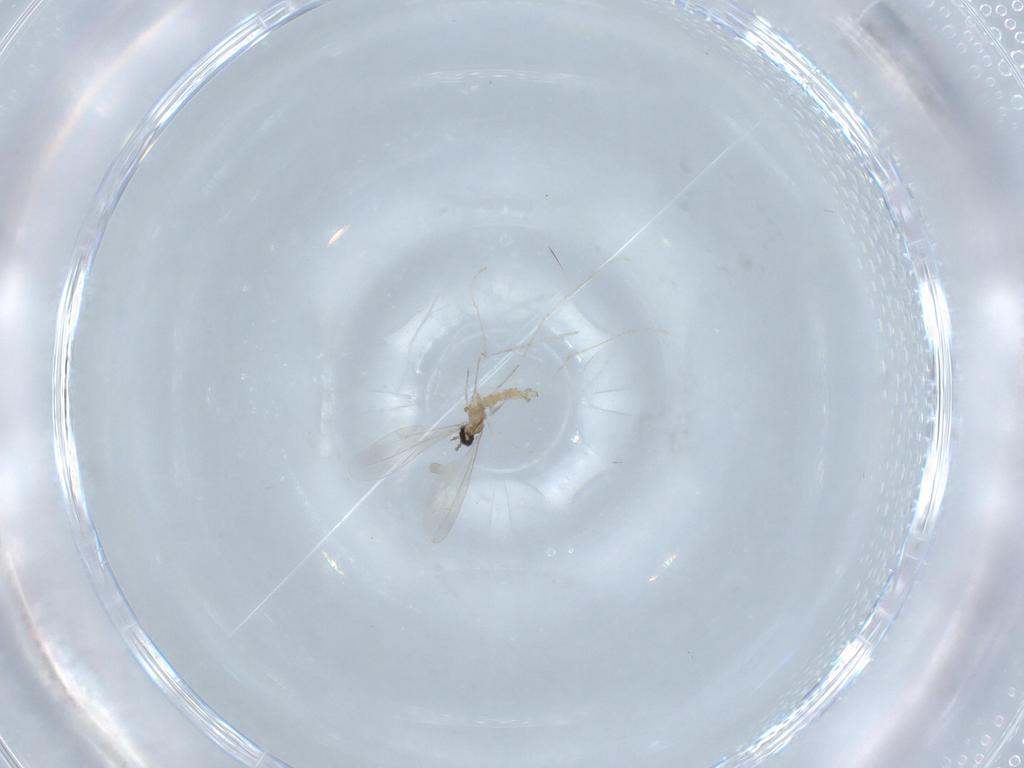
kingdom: Animalia
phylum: Arthropoda
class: Insecta
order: Diptera
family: Cecidomyiidae
